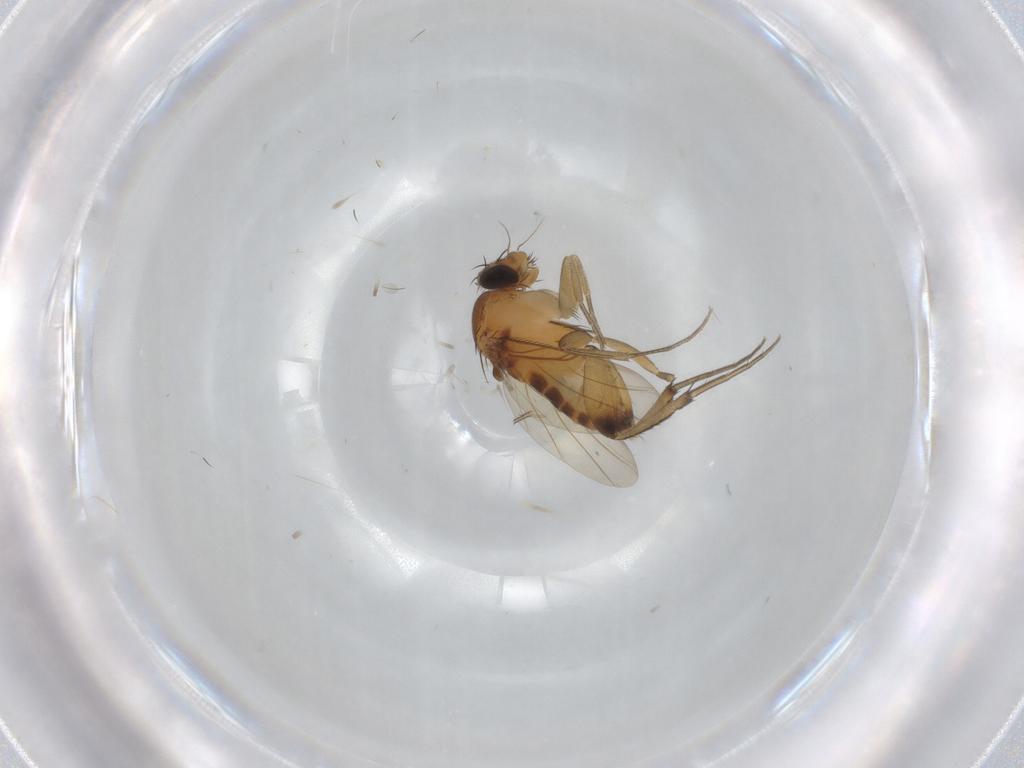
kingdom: Animalia
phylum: Arthropoda
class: Insecta
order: Diptera
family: Phoridae
